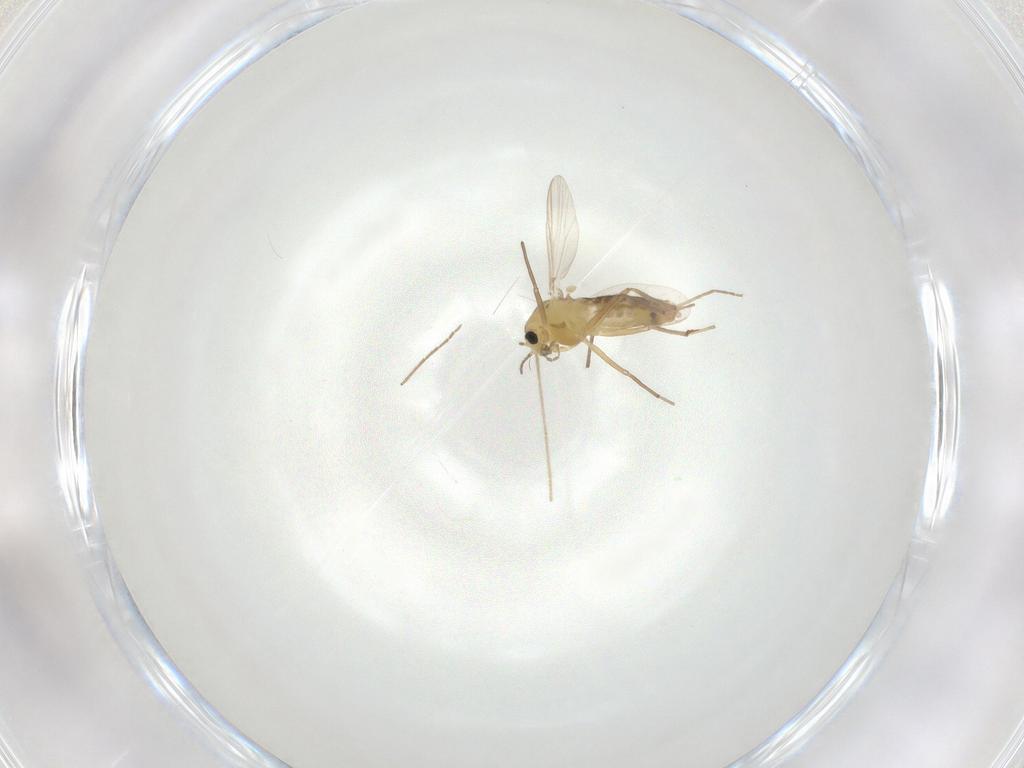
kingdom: Animalia
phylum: Arthropoda
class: Insecta
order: Diptera
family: Chironomidae
